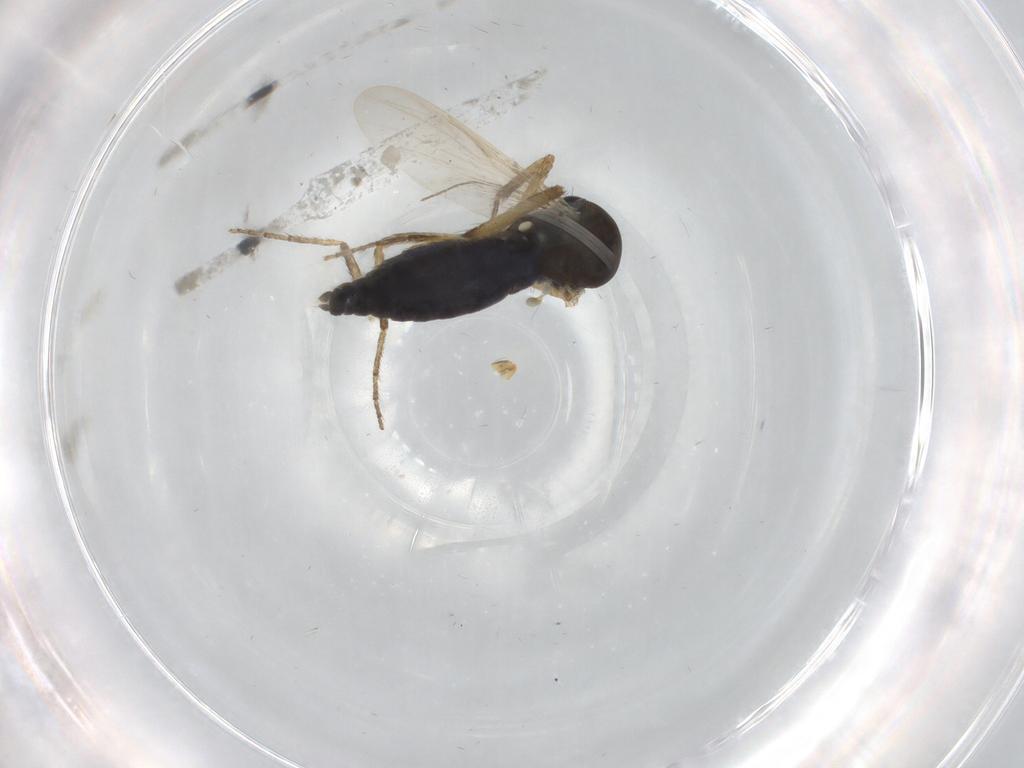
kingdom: Animalia
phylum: Arthropoda
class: Insecta
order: Diptera
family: Ceratopogonidae
